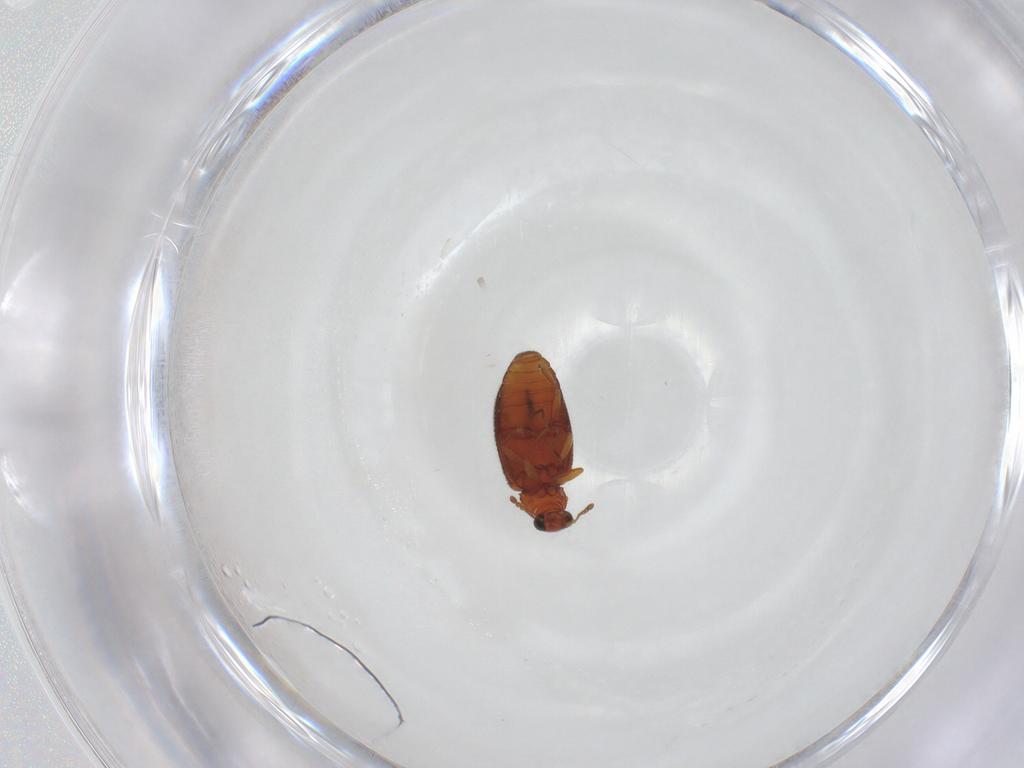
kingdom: Animalia
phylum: Arthropoda
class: Insecta
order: Coleoptera
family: Latridiidae
